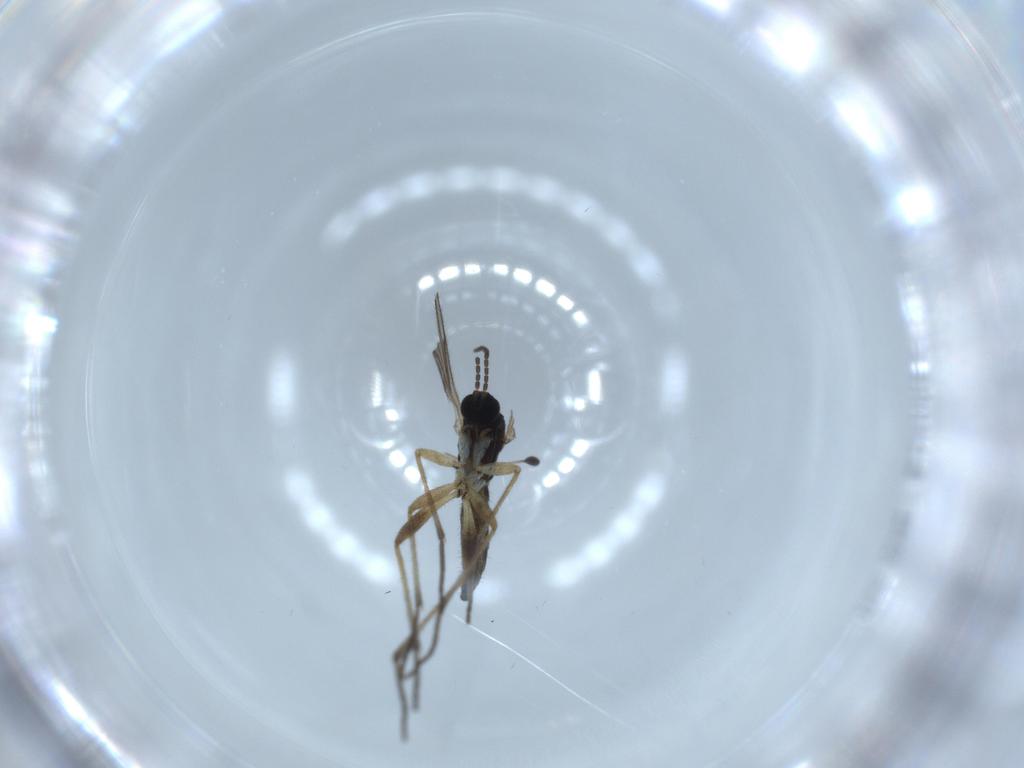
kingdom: Animalia
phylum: Arthropoda
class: Insecta
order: Diptera
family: Sciaridae
